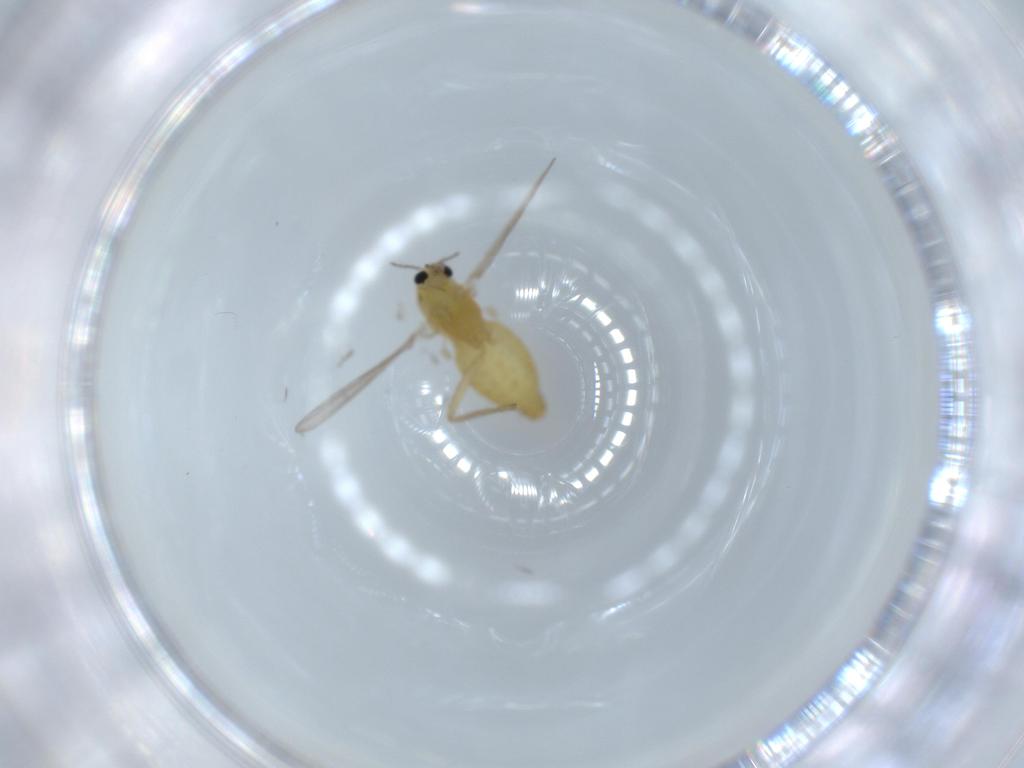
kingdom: Animalia
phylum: Arthropoda
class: Insecta
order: Diptera
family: Chironomidae
